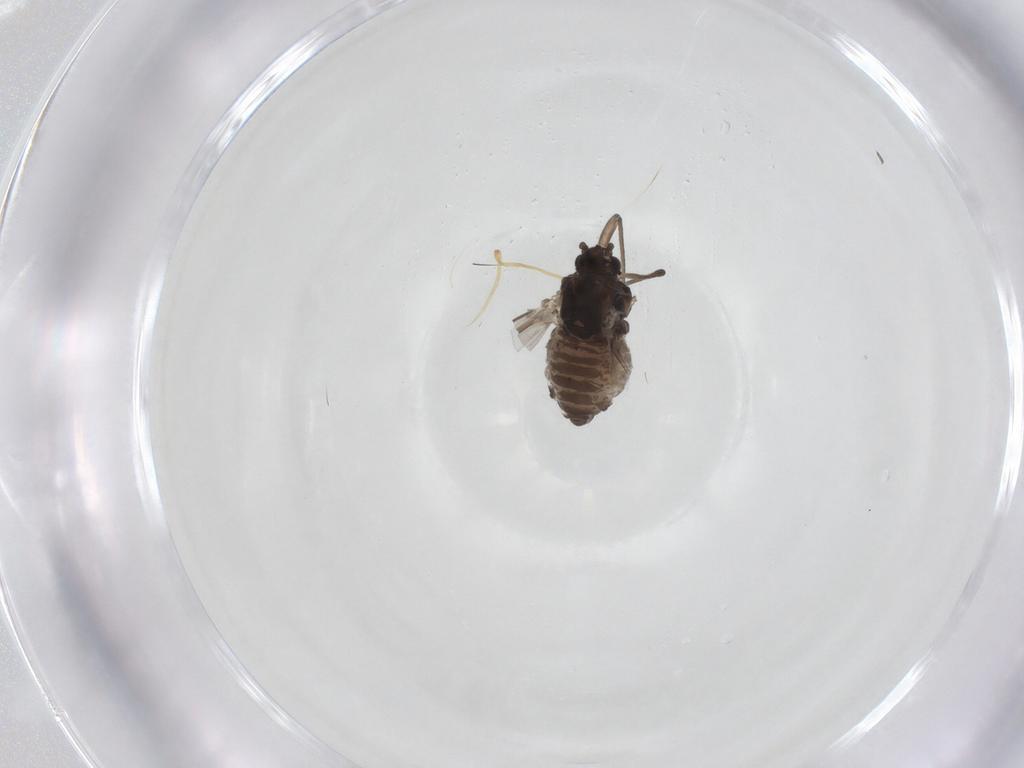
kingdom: Animalia
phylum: Arthropoda
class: Insecta
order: Hemiptera
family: Aphididae
